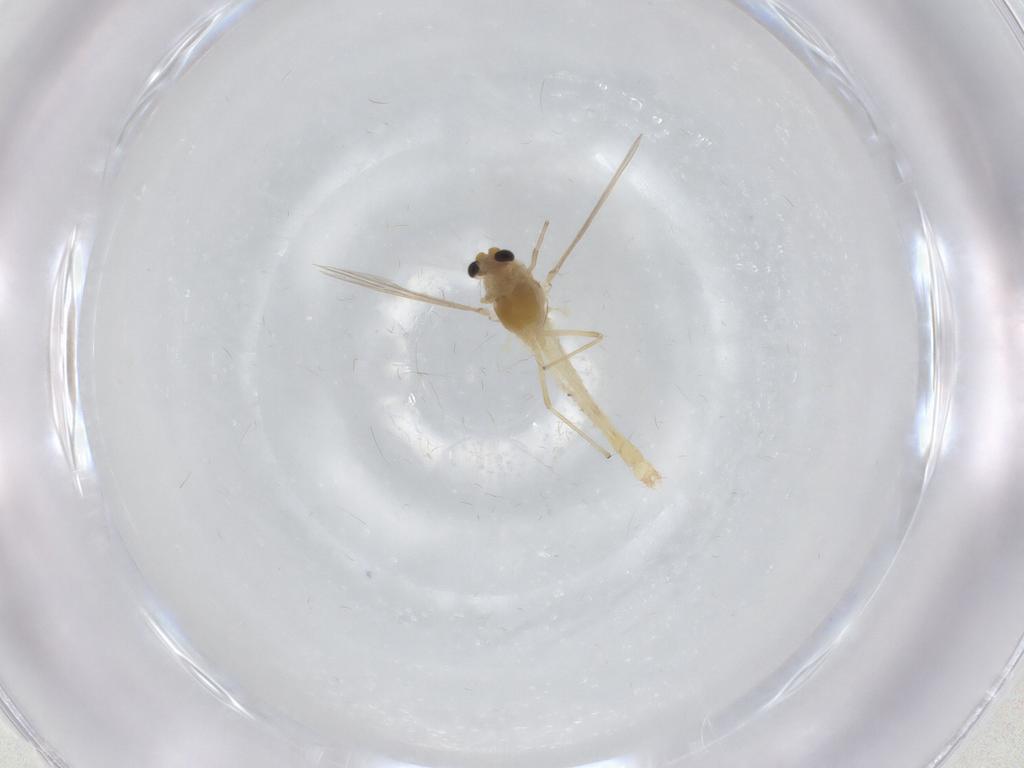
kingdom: Animalia
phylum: Arthropoda
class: Insecta
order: Diptera
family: Chironomidae
